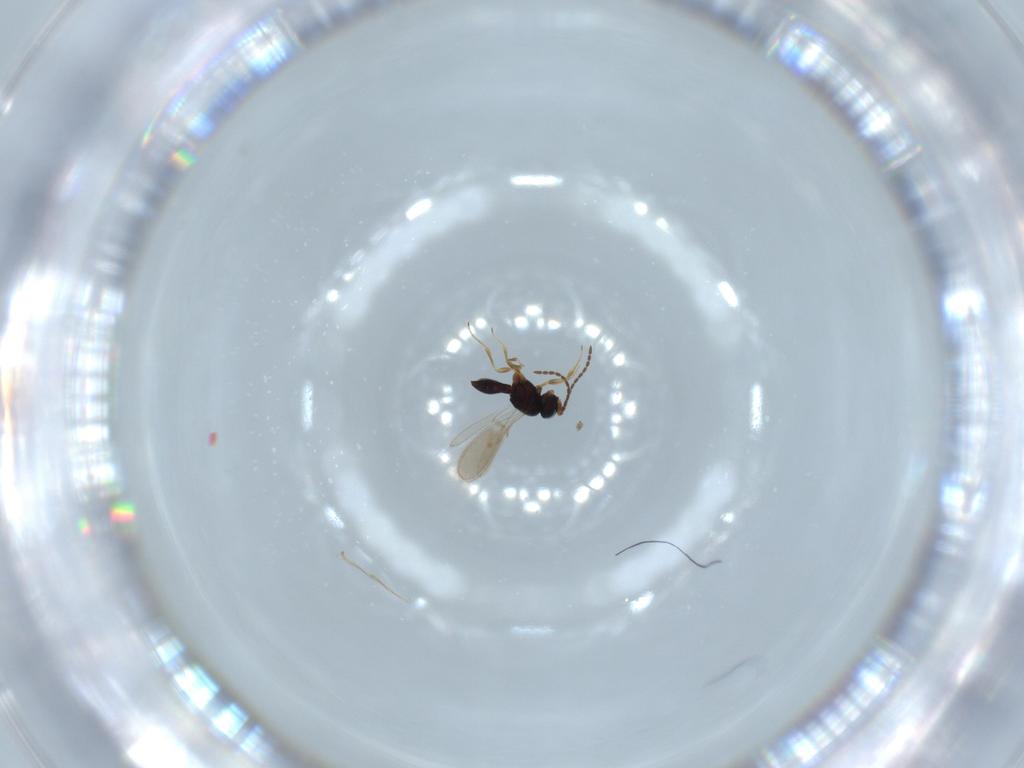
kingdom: Animalia
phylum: Arthropoda
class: Insecta
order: Hymenoptera
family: Scelionidae
